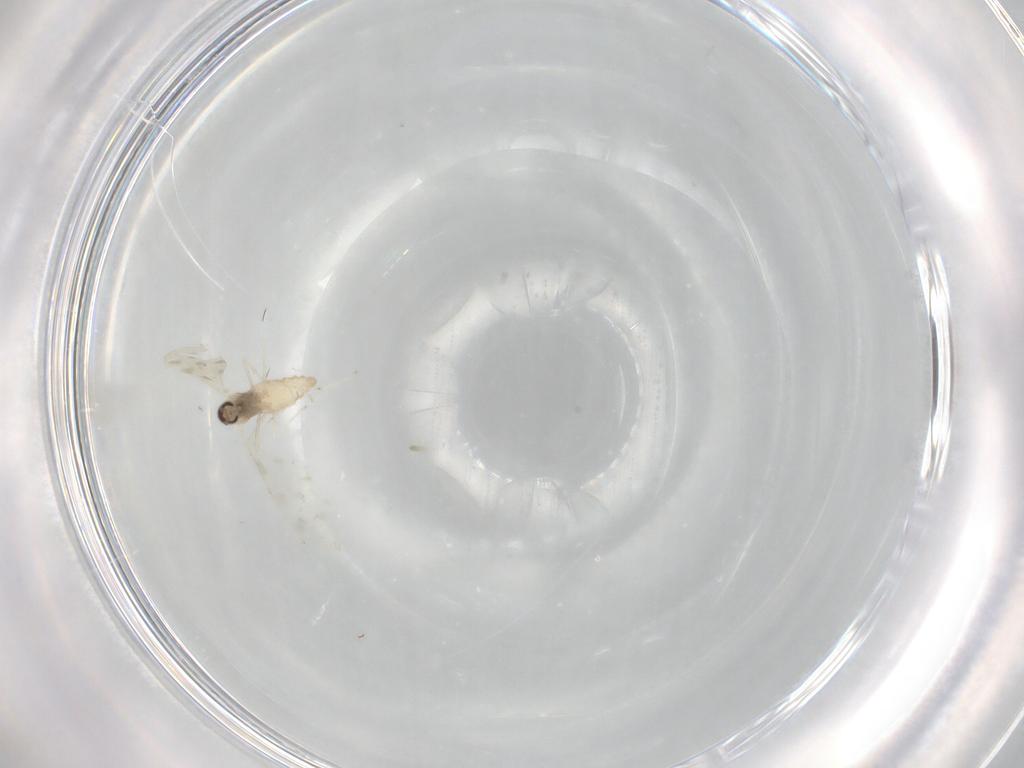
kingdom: Animalia
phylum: Arthropoda
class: Insecta
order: Diptera
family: Cecidomyiidae
